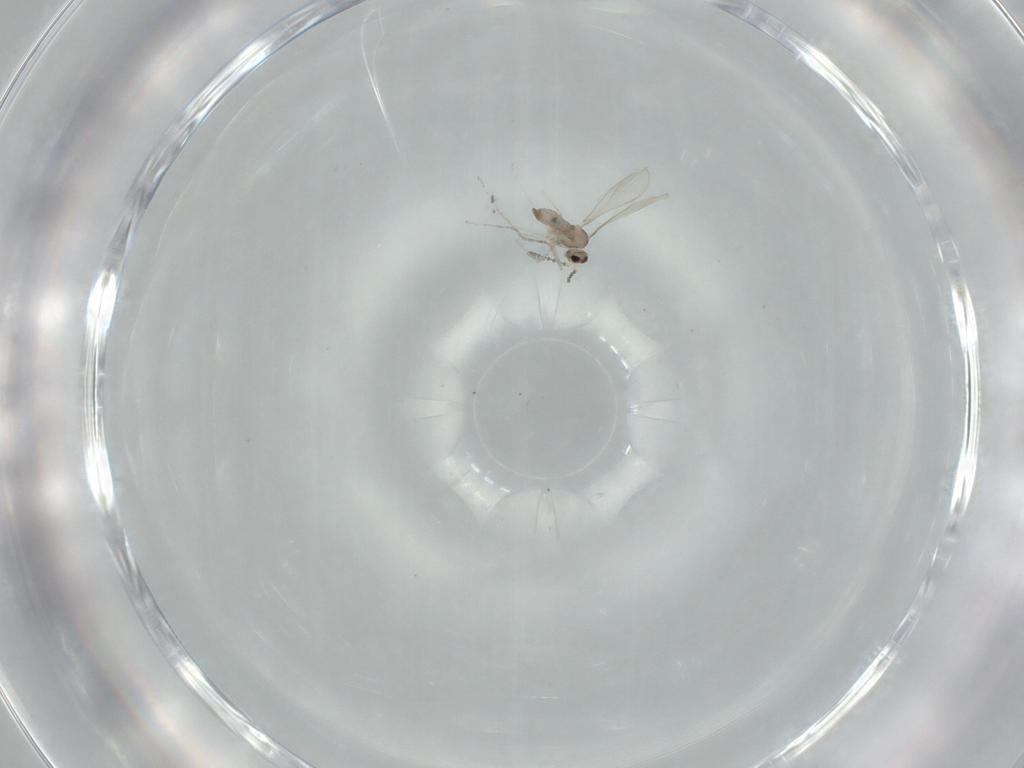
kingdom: Animalia
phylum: Arthropoda
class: Insecta
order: Diptera
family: Cecidomyiidae
